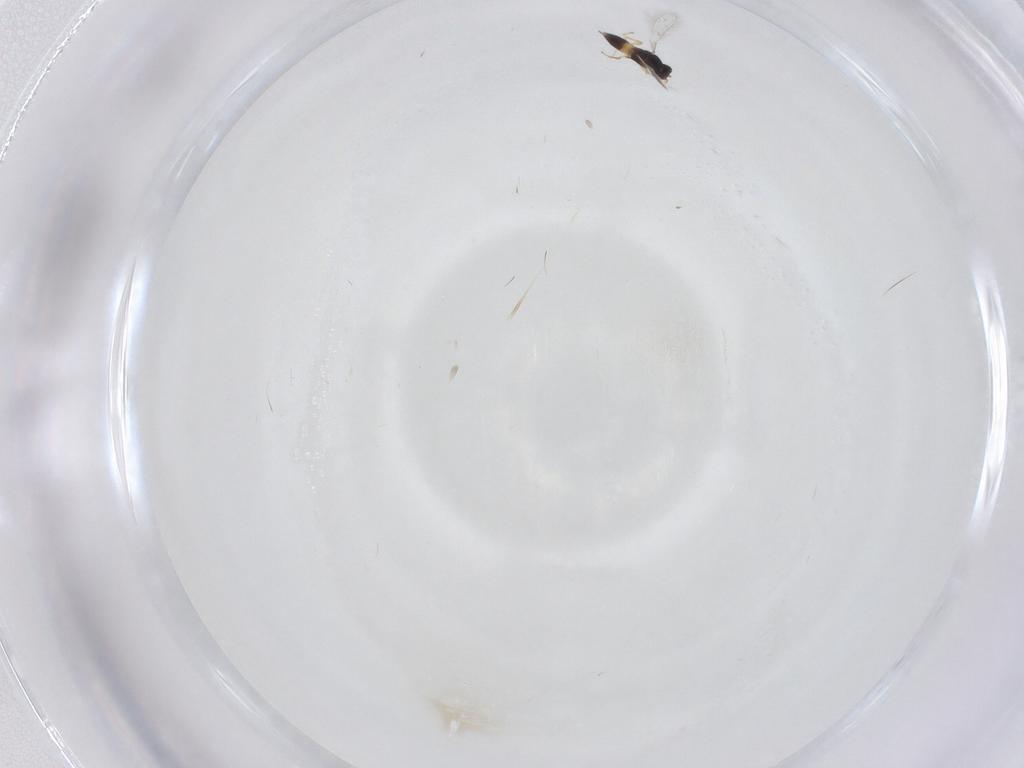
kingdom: Animalia
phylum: Arthropoda
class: Insecta
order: Hymenoptera
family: Mymaridae
